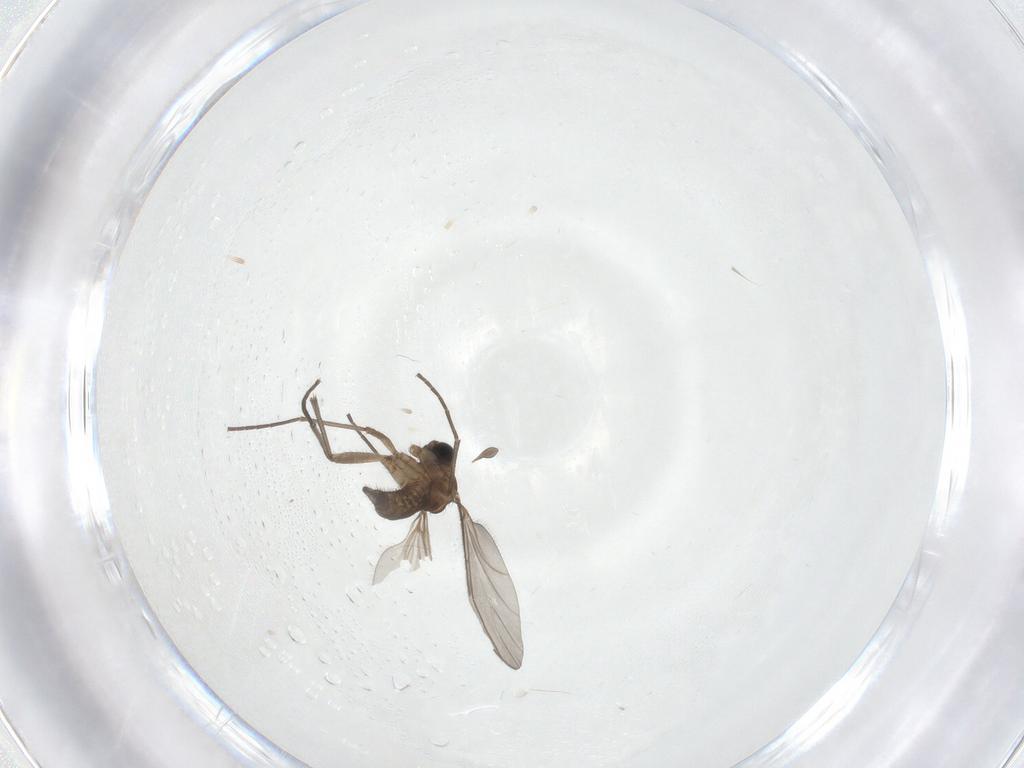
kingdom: Animalia
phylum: Arthropoda
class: Insecta
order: Diptera
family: Sciaridae
